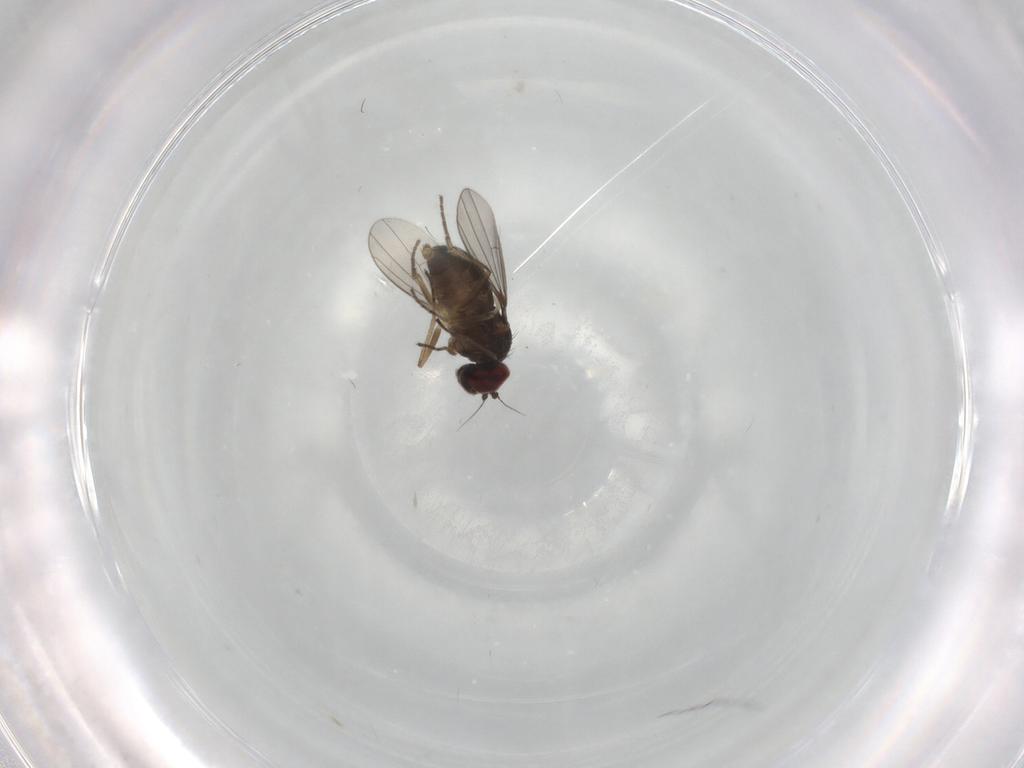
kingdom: Animalia
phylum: Arthropoda
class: Insecta
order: Diptera
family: Dolichopodidae
